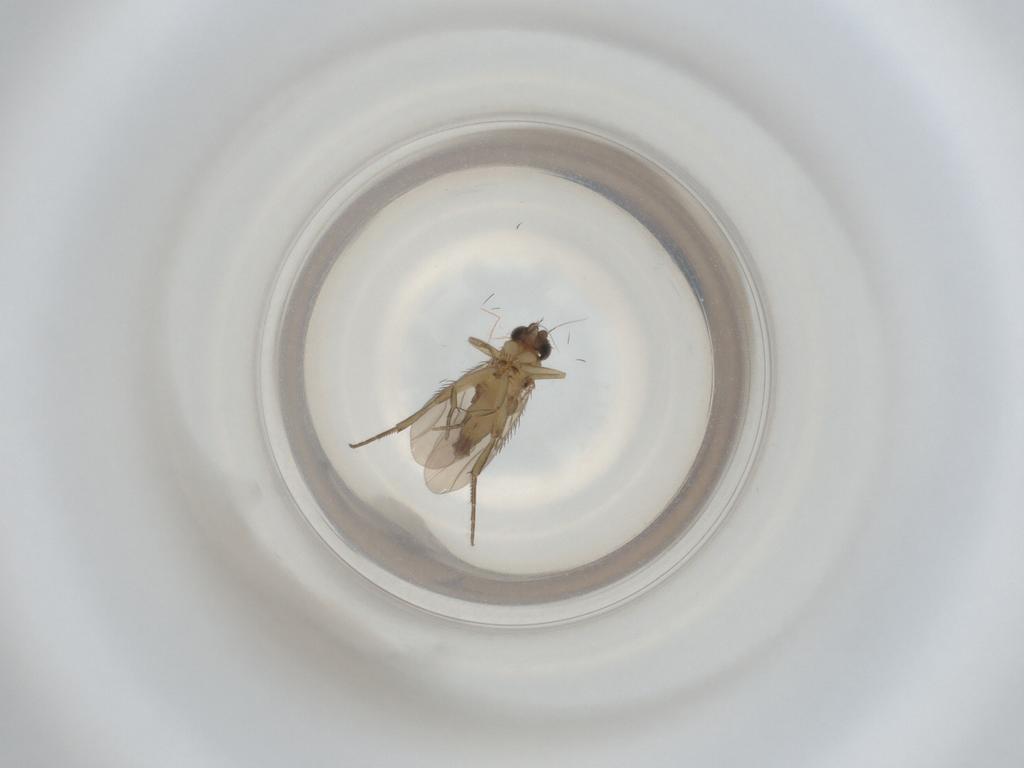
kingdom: Animalia
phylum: Arthropoda
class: Insecta
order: Diptera
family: Phoridae
